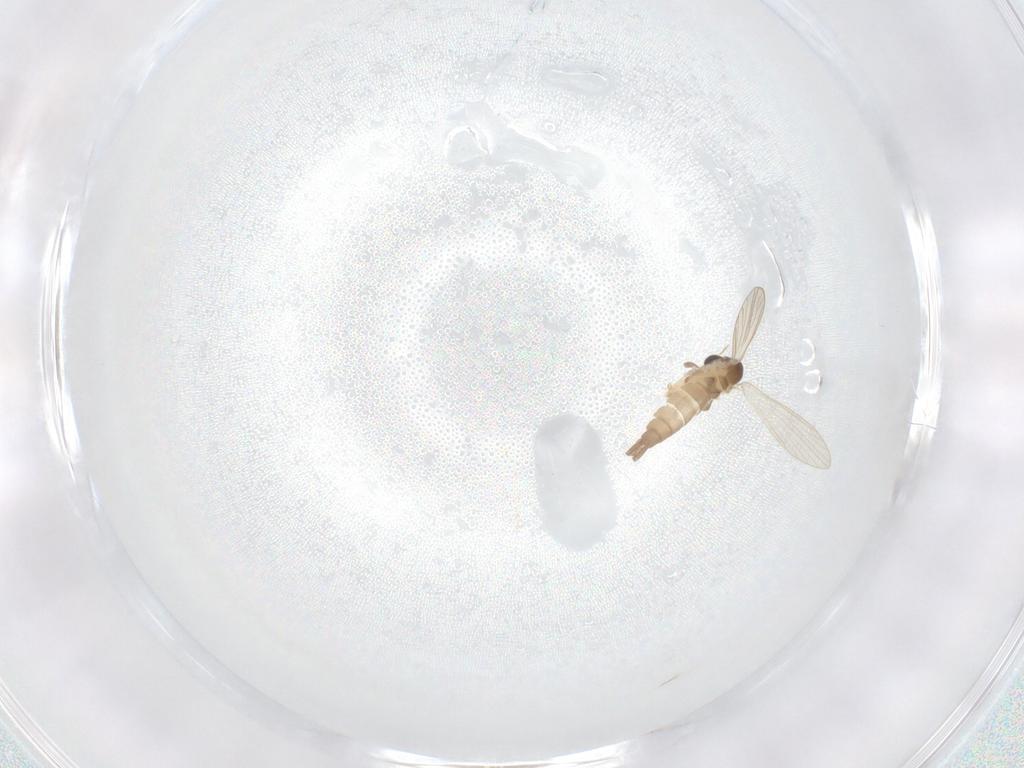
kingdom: Animalia
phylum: Arthropoda
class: Insecta
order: Diptera
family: Psychodidae
